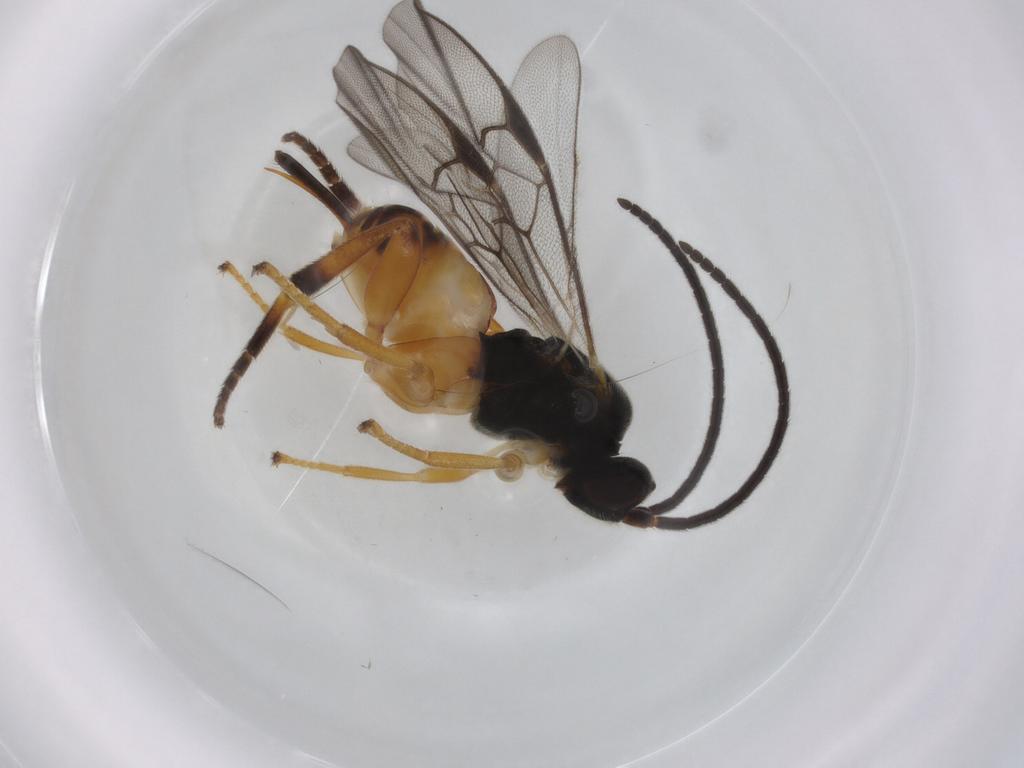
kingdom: Animalia
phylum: Arthropoda
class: Insecta
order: Hymenoptera
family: Braconidae
